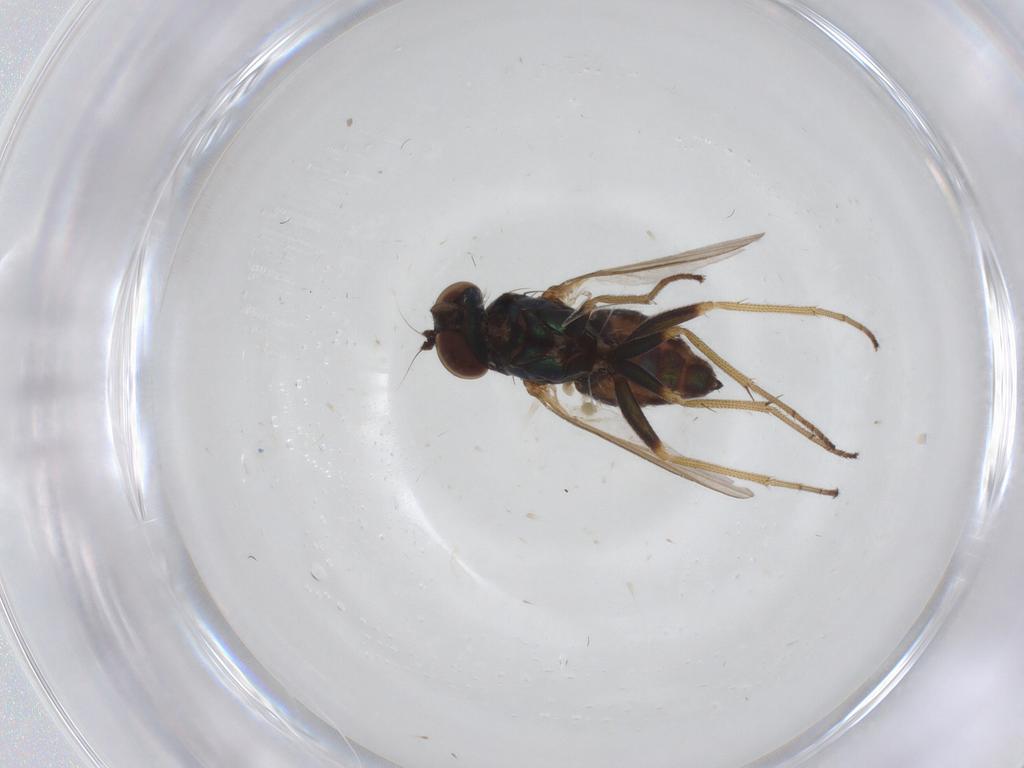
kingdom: Animalia
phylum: Arthropoda
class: Insecta
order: Diptera
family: Dolichopodidae
